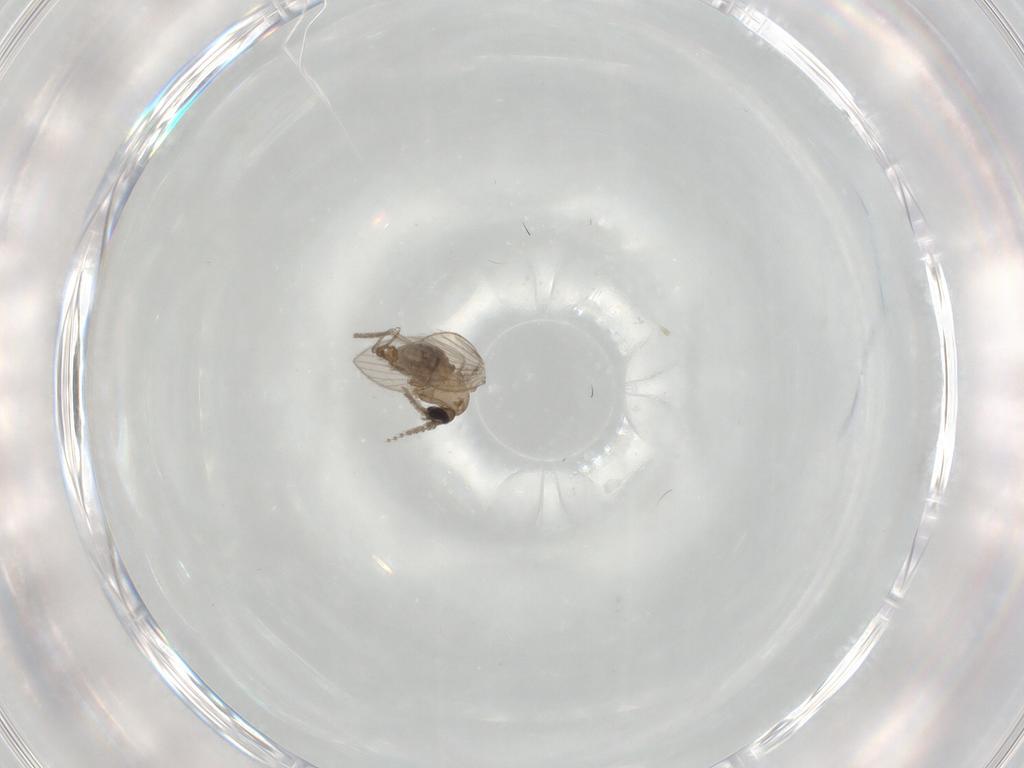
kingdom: Animalia
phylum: Arthropoda
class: Insecta
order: Diptera
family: Psychodidae
